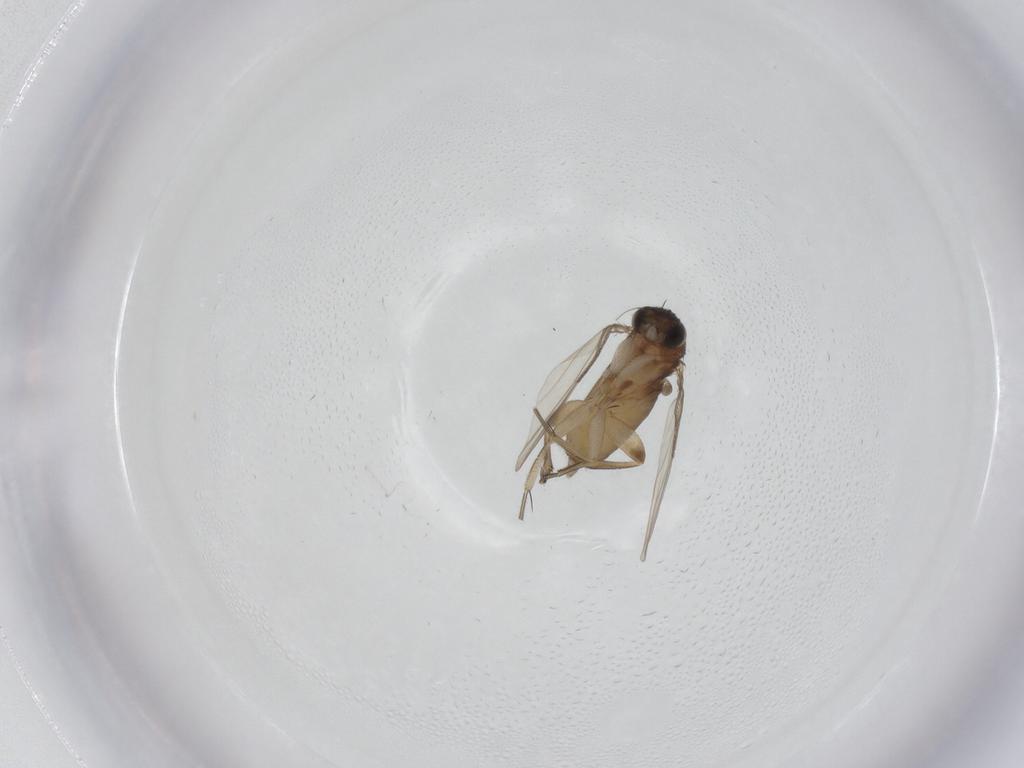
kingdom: Animalia
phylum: Arthropoda
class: Insecta
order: Diptera
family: Phoridae
